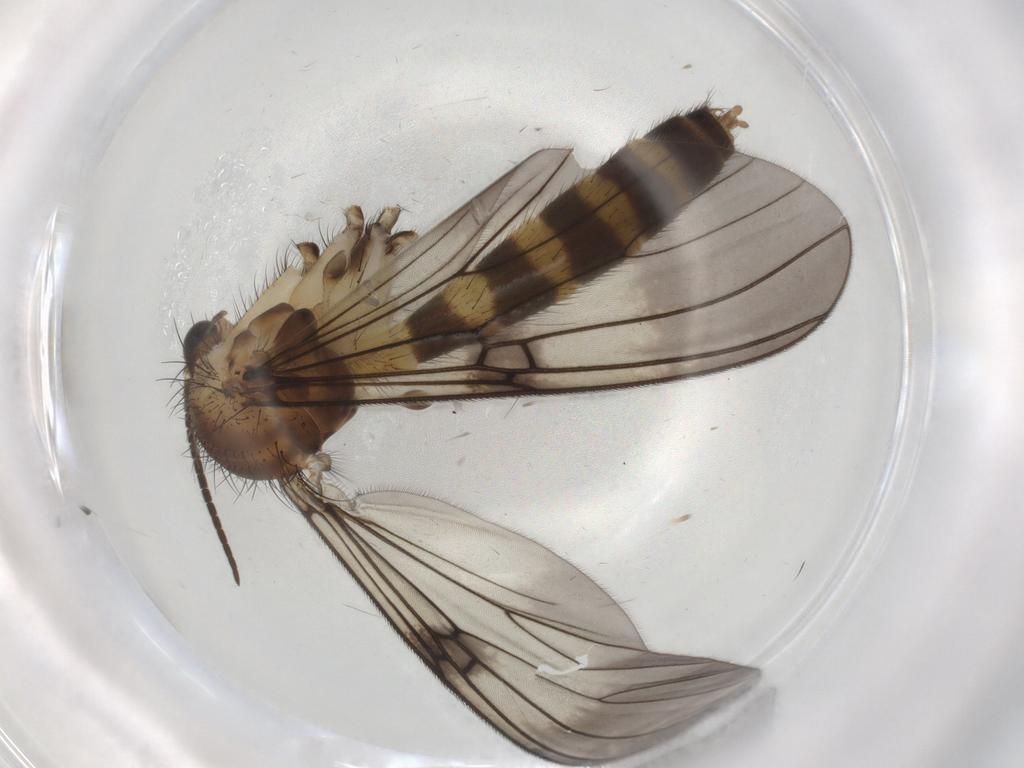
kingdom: Animalia
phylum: Arthropoda
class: Insecta
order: Diptera
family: Mycetophilidae
